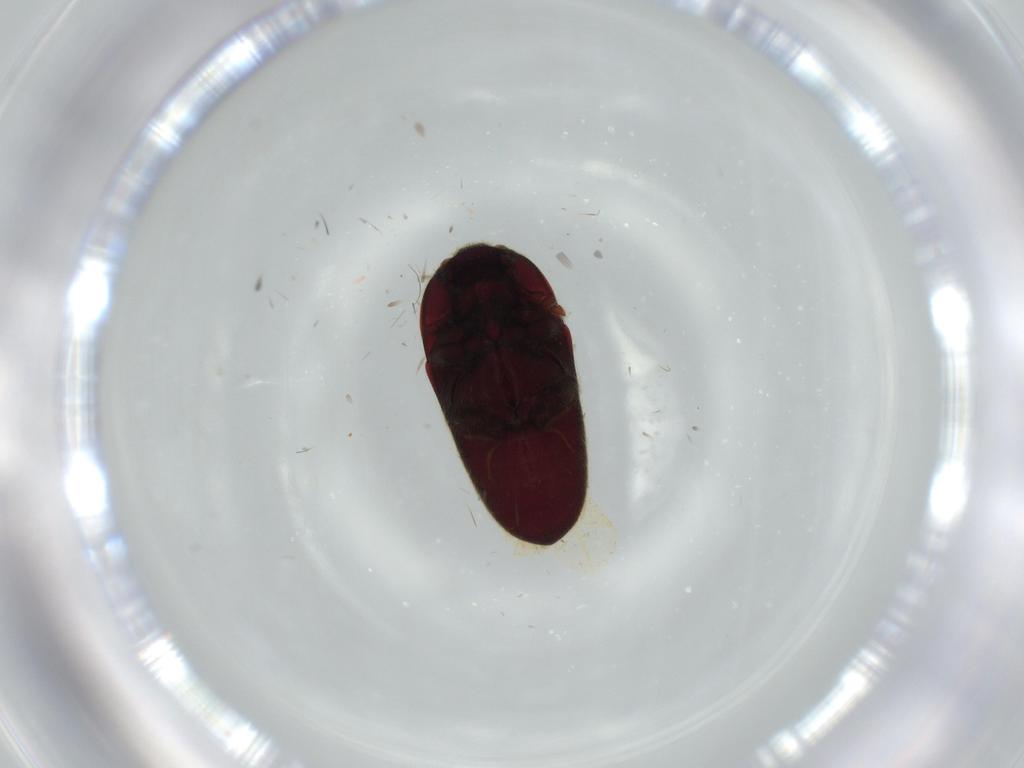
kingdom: Animalia
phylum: Arthropoda
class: Insecta
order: Coleoptera
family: Throscidae
